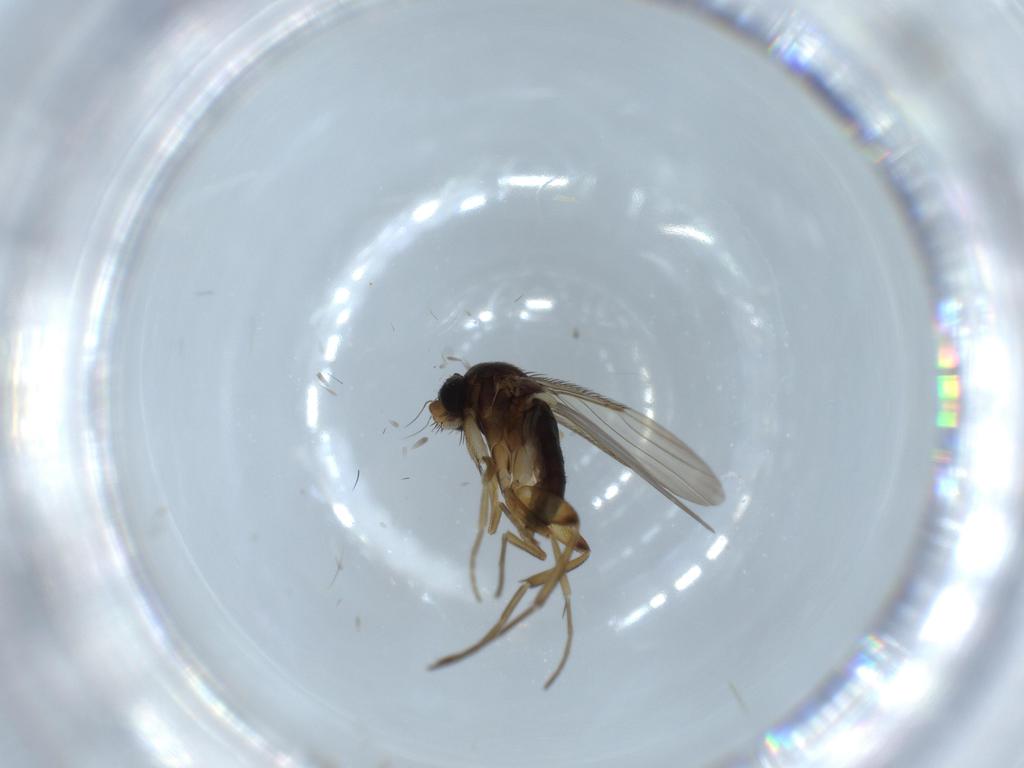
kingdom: Animalia
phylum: Arthropoda
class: Insecta
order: Diptera
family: Phoridae
